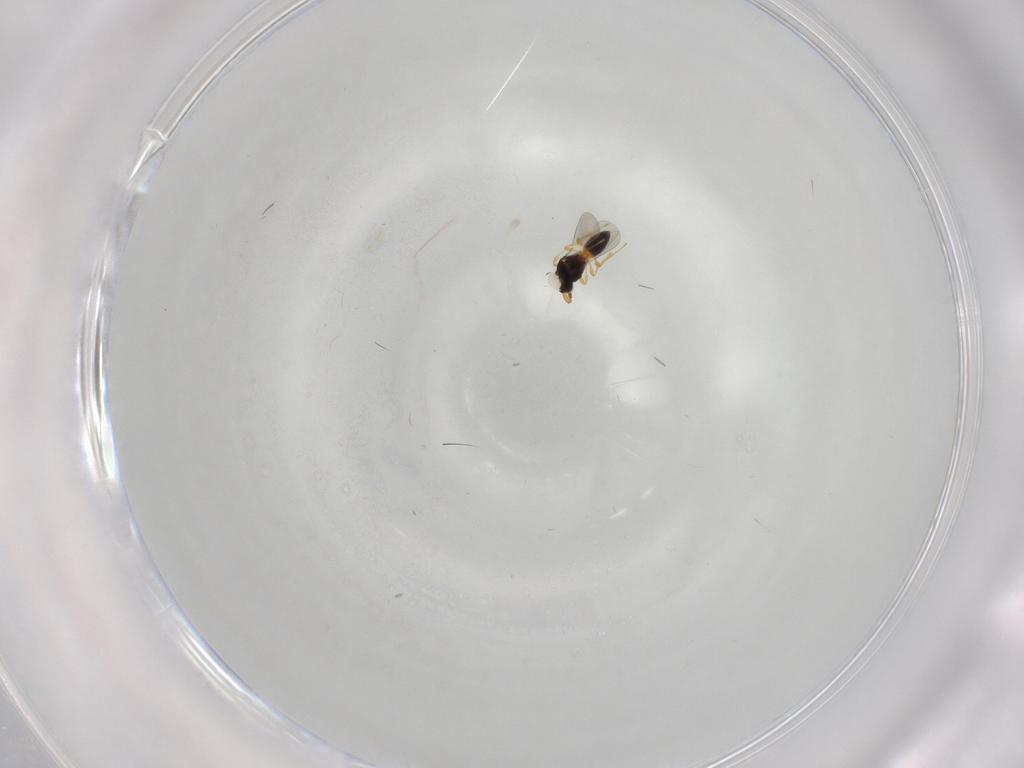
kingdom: Animalia
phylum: Arthropoda
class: Insecta
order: Hymenoptera
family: Platygastridae
